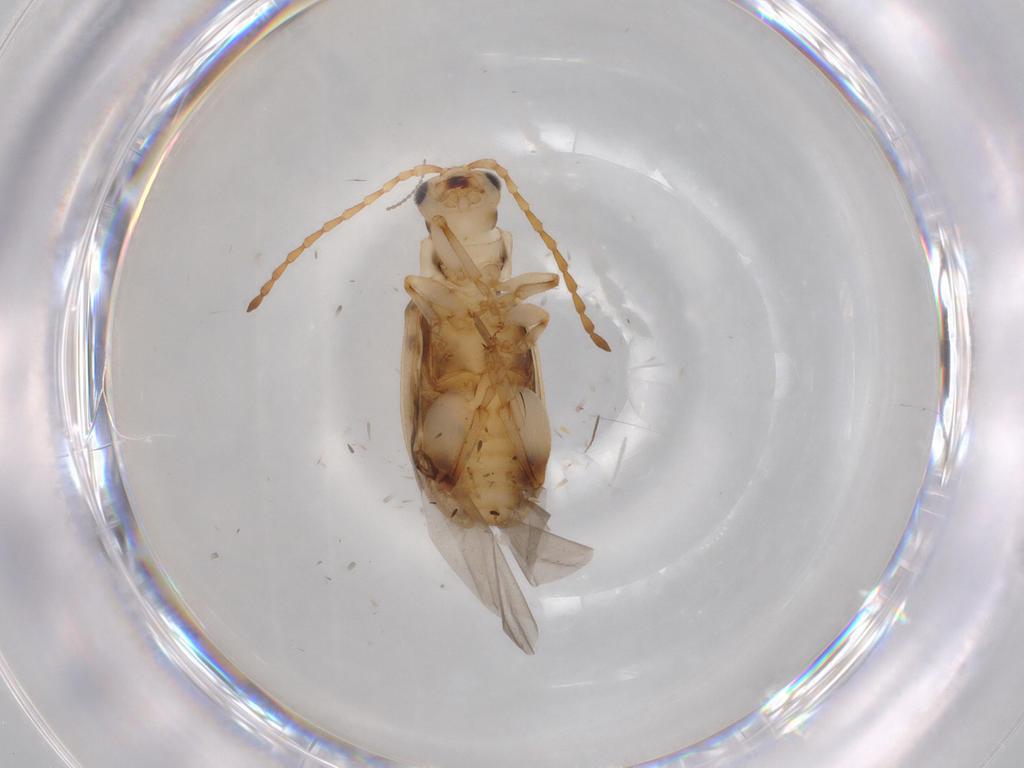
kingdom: Animalia
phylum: Arthropoda
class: Insecta
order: Coleoptera
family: Chrysomelidae
